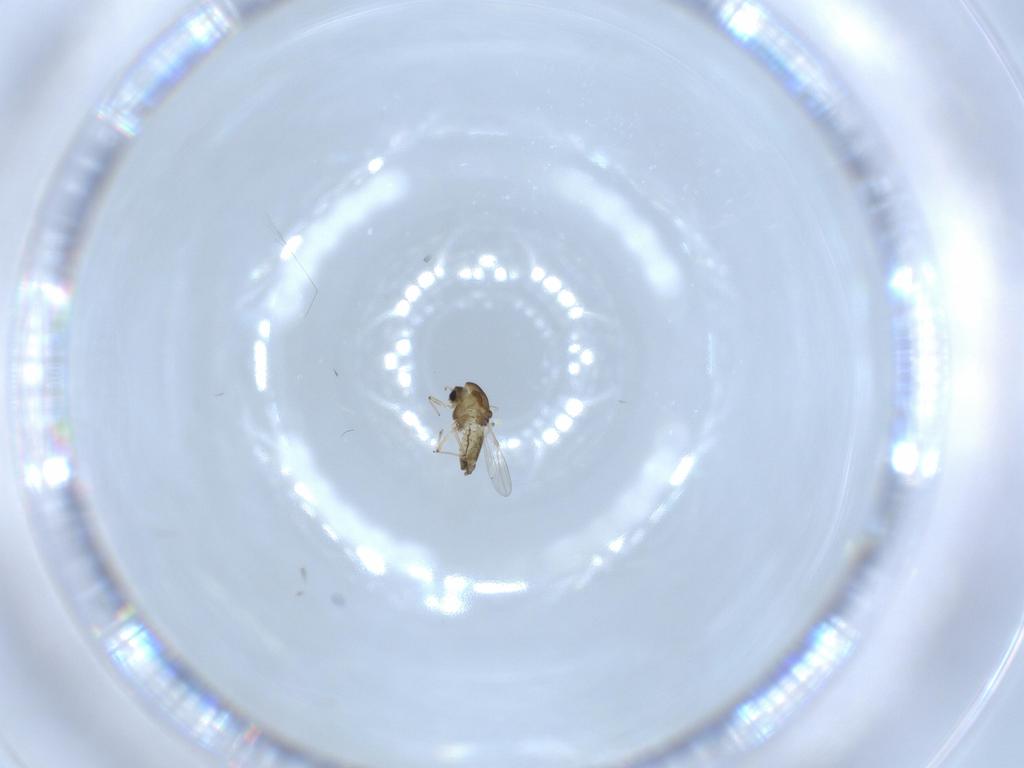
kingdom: Animalia
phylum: Arthropoda
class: Insecta
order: Diptera
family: Chironomidae
